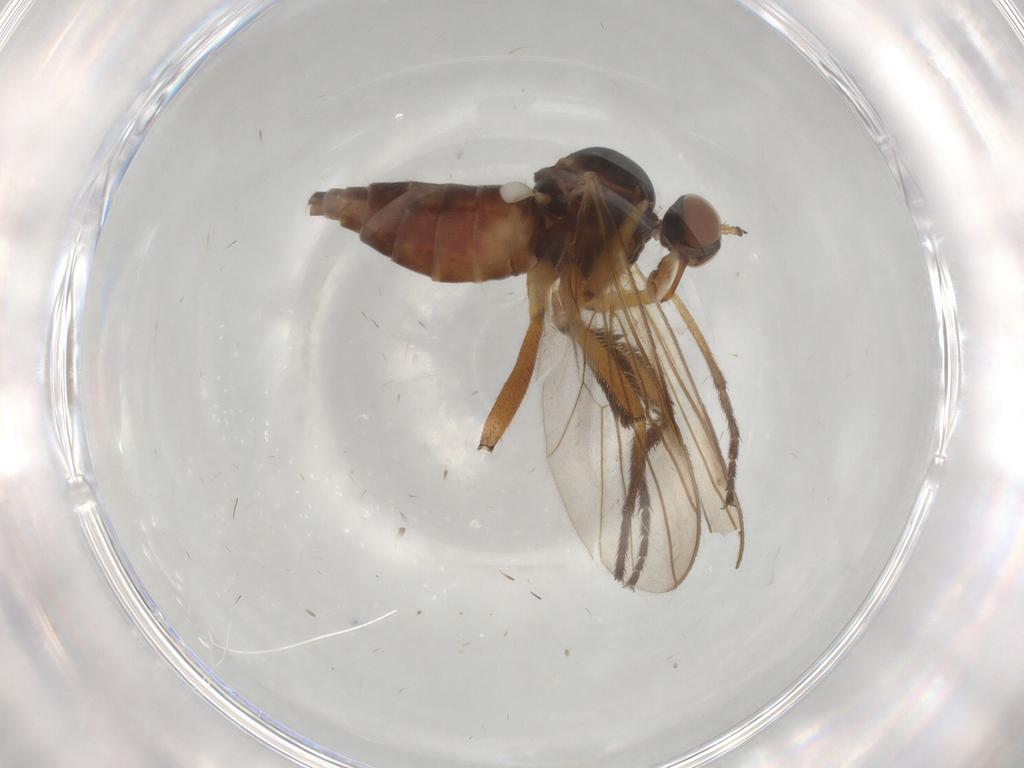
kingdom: Animalia
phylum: Arthropoda
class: Insecta
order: Diptera
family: Empididae
